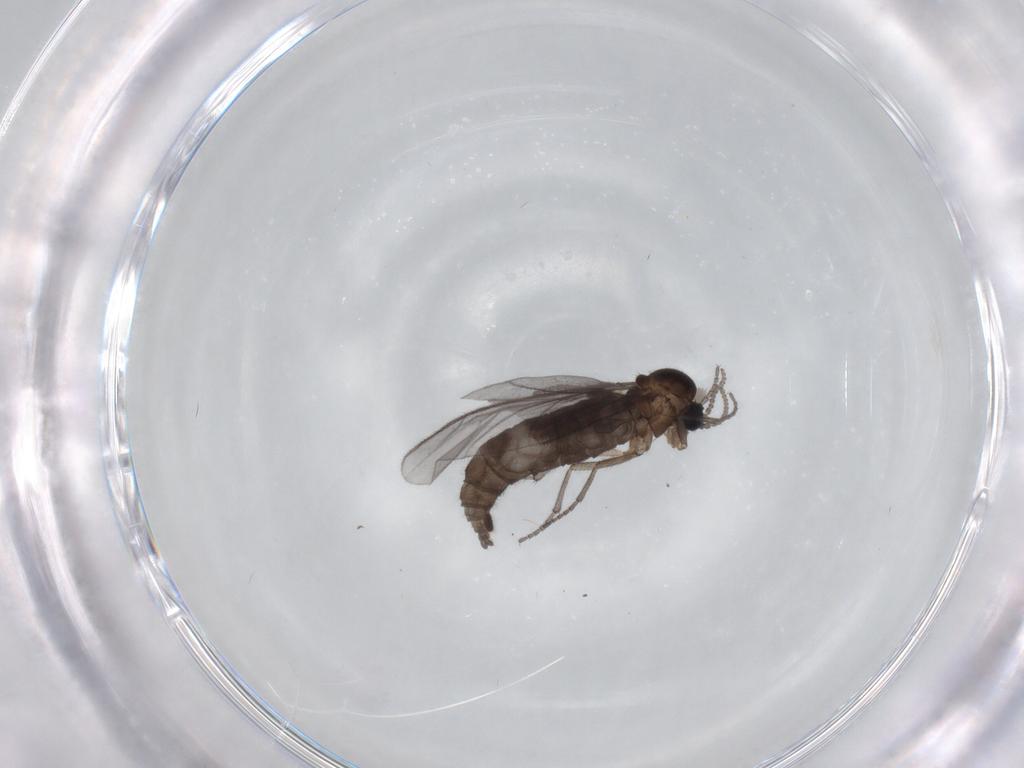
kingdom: Animalia
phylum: Arthropoda
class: Insecta
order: Diptera
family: Sciaridae
